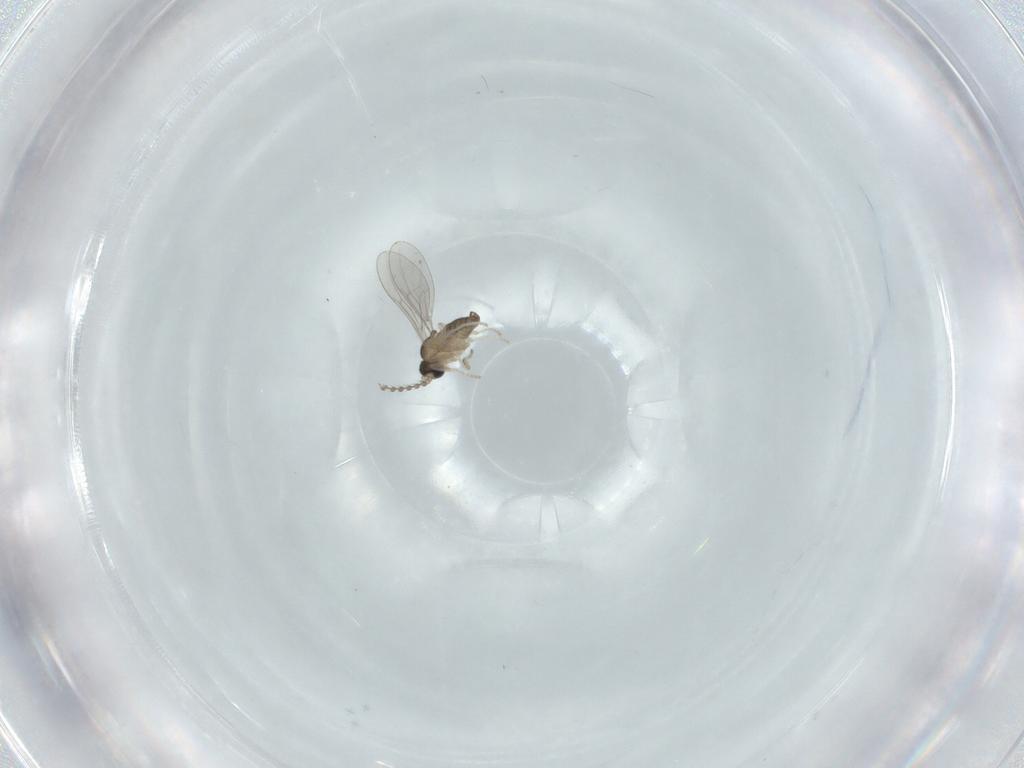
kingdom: Animalia
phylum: Arthropoda
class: Insecta
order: Diptera
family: Cecidomyiidae
